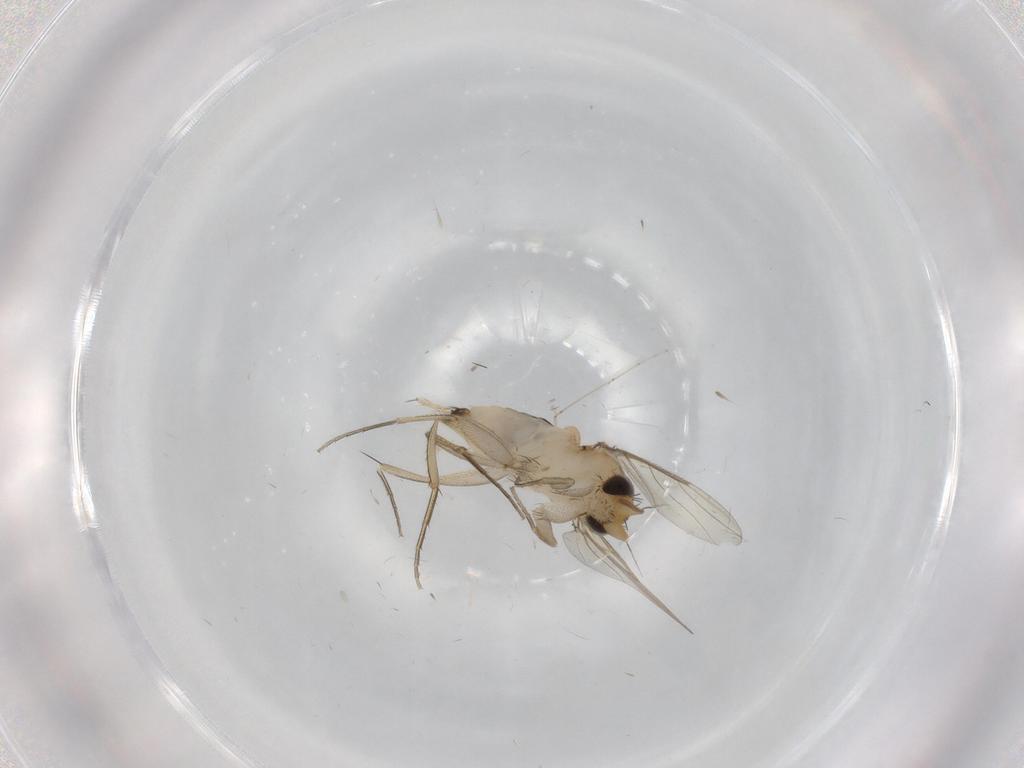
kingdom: Animalia
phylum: Arthropoda
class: Insecta
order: Diptera
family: Phoridae
